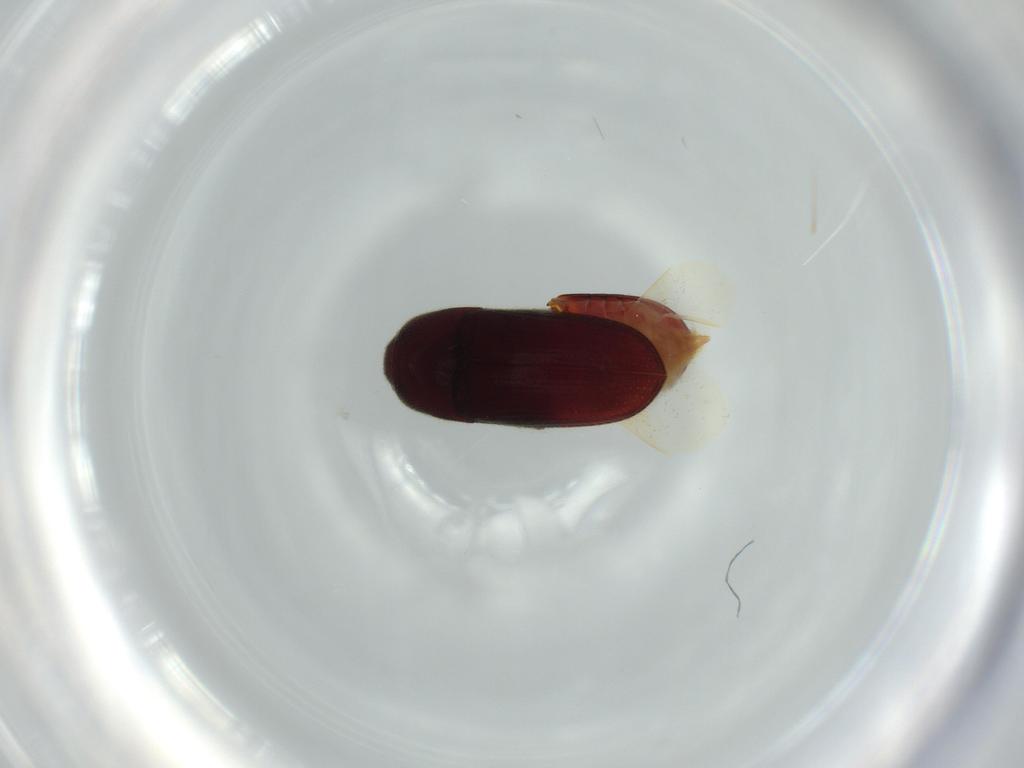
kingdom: Animalia
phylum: Arthropoda
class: Insecta
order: Coleoptera
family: Throscidae
